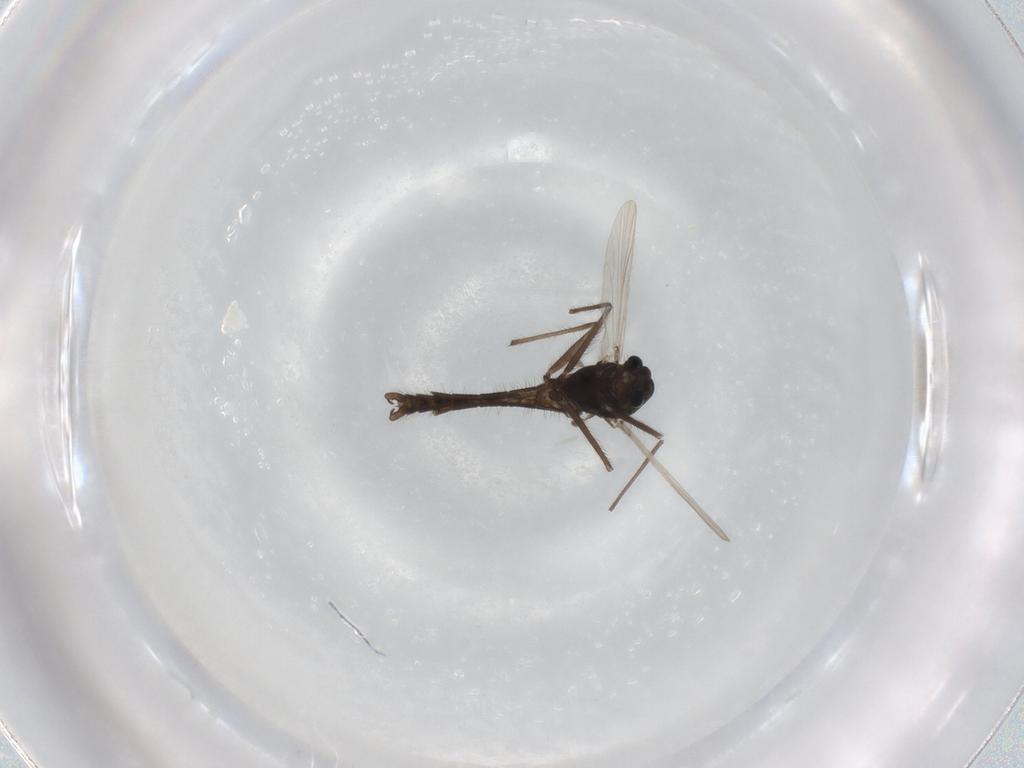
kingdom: Animalia
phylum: Arthropoda
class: Insecta
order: Diptera
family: Chironomidae
